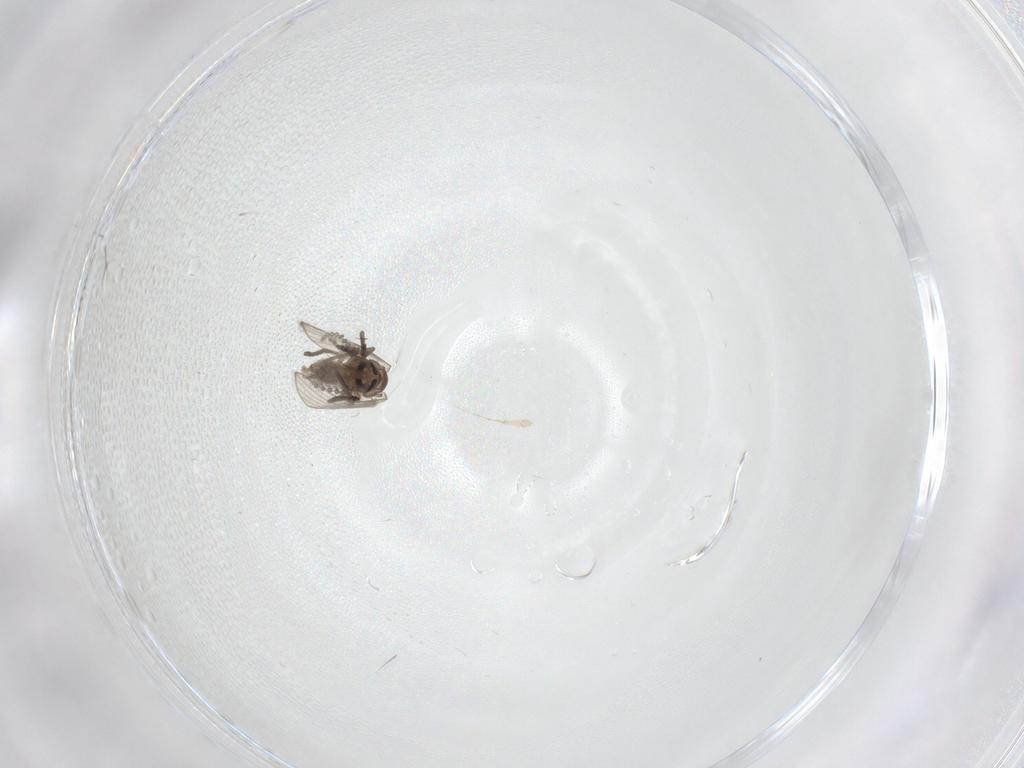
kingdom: Animalia
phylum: Arthropoda
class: Insecta
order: Diptera
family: Psychodidae
